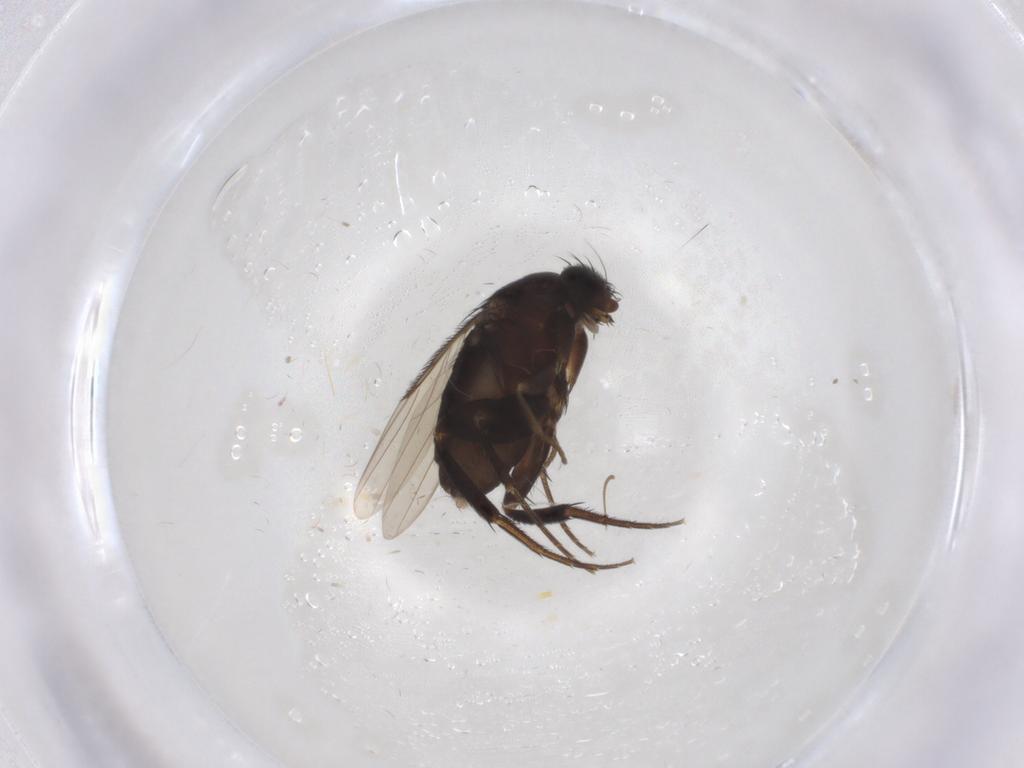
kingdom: Animalia
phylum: Arthropoda
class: Insecta
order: Diptera
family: Phoridae
